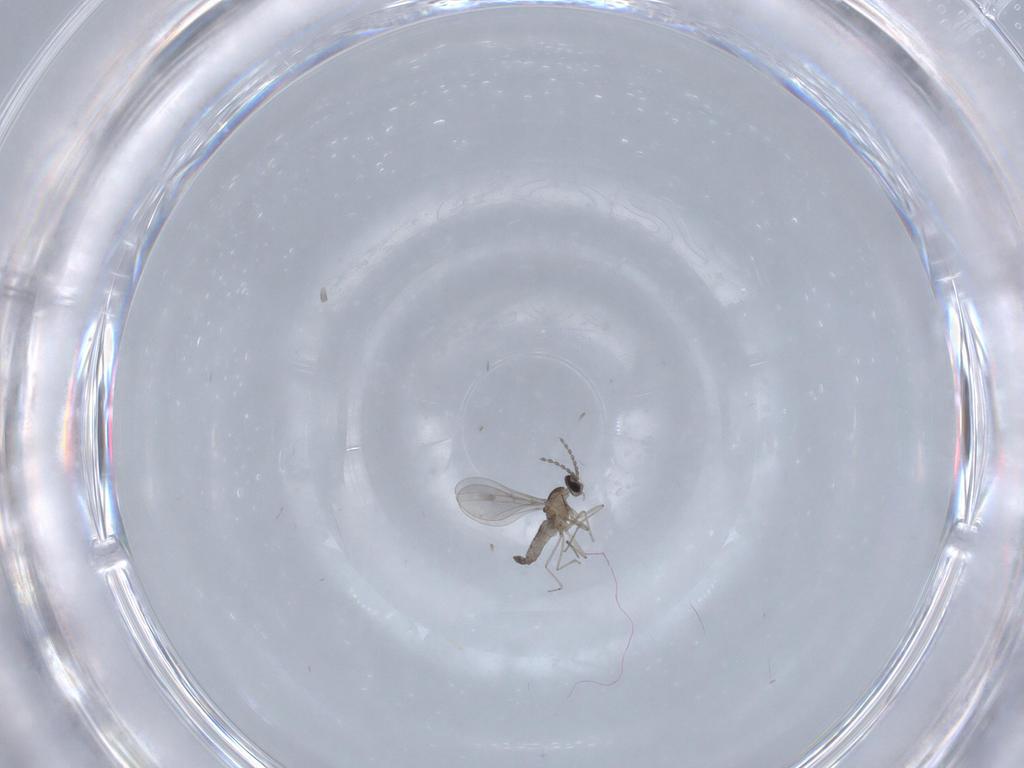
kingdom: Animalia
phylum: Arthropoda
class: Insecta
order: Diptera
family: Chironomidae
